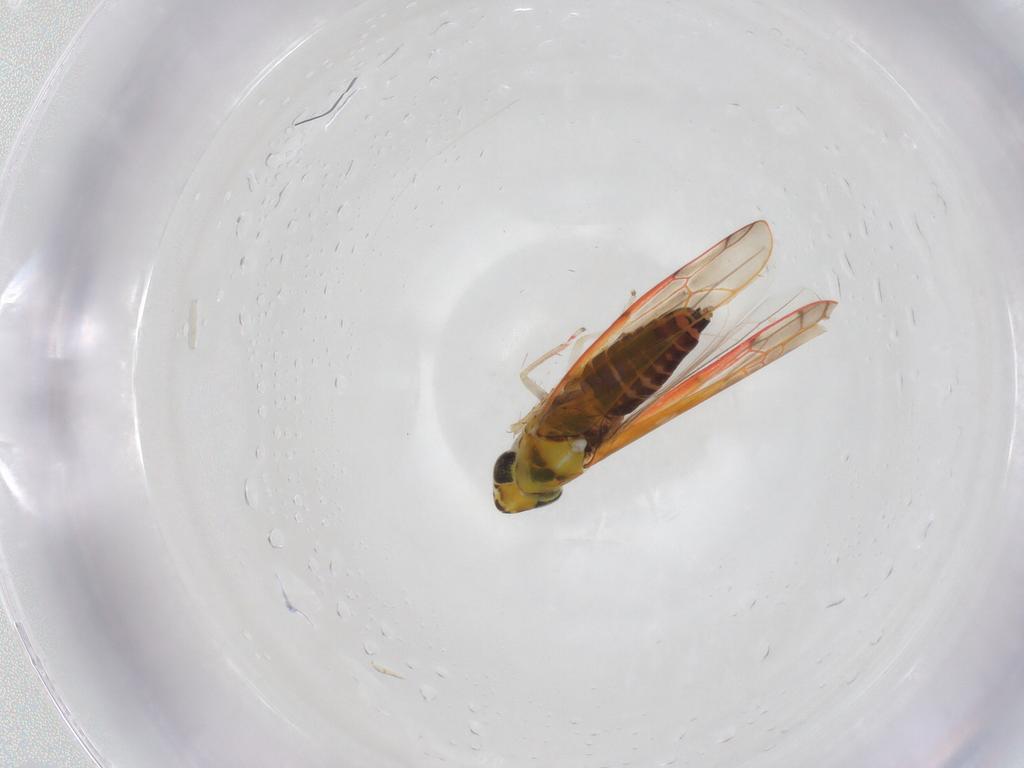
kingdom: Animalia
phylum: Arthropoda
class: Insecta
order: Hemiptera
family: Cicadellidae
